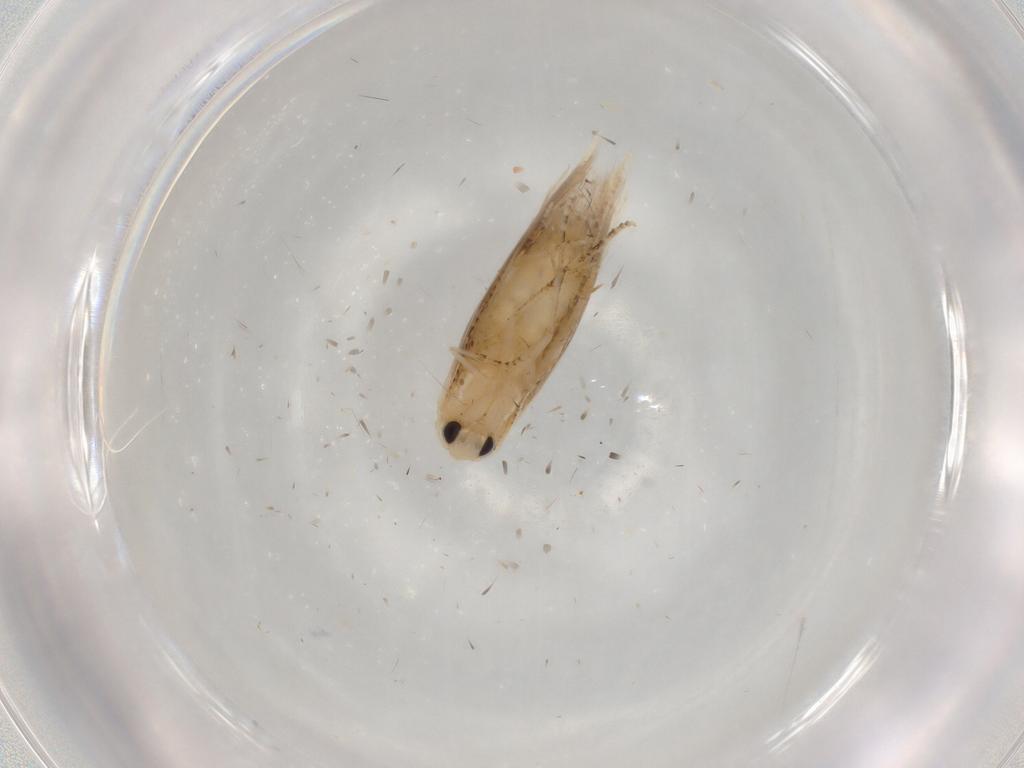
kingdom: Animalia
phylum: Arthropoda
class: Insecta
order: Lepidoptera
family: Bucculatricidae
